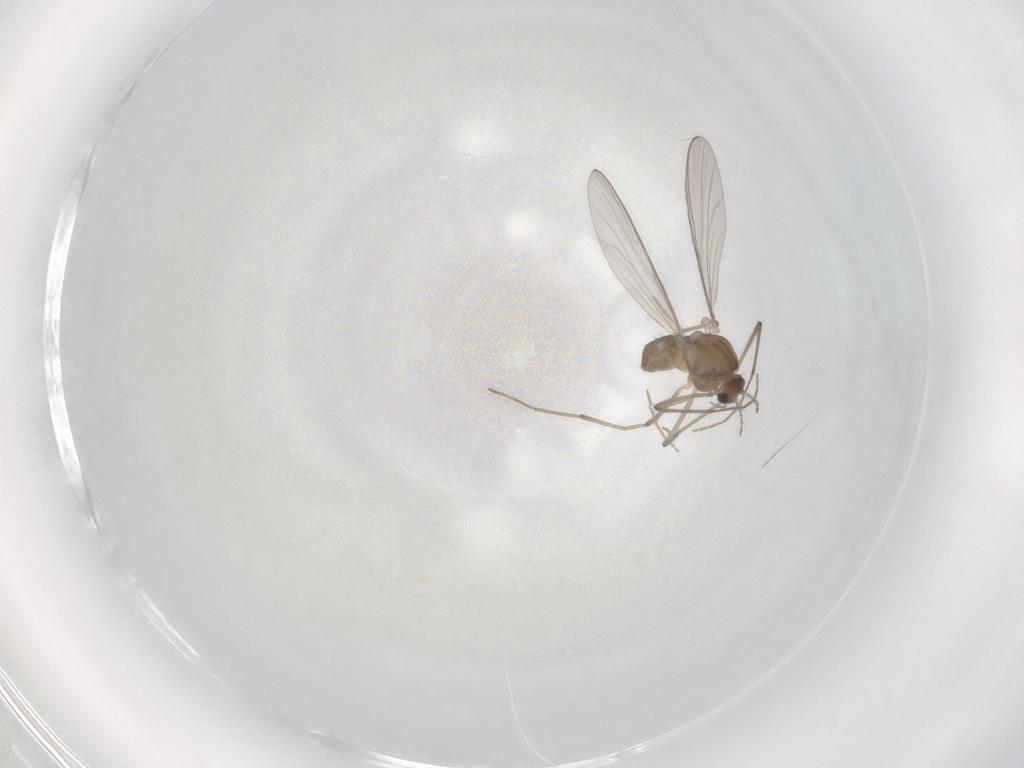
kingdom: Animalia
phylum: Arthropoda
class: Insecta
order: Diptera
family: Chironomidae
